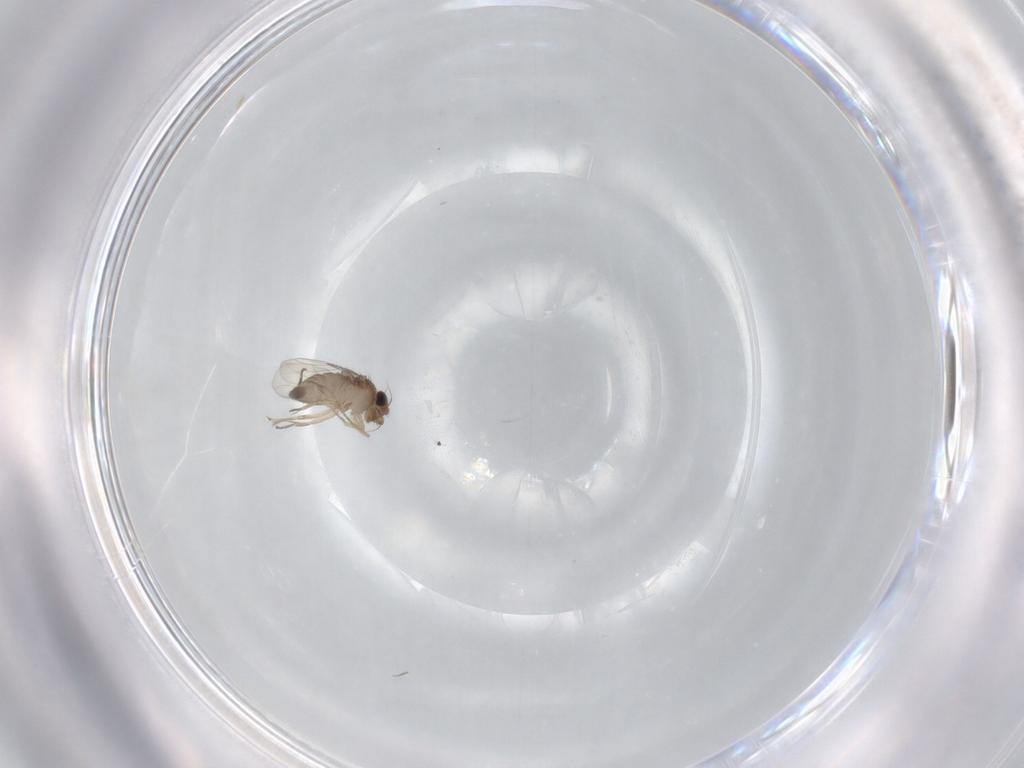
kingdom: Animalia
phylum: Arthropoda
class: Insecta
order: Diptera
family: Phoridae
